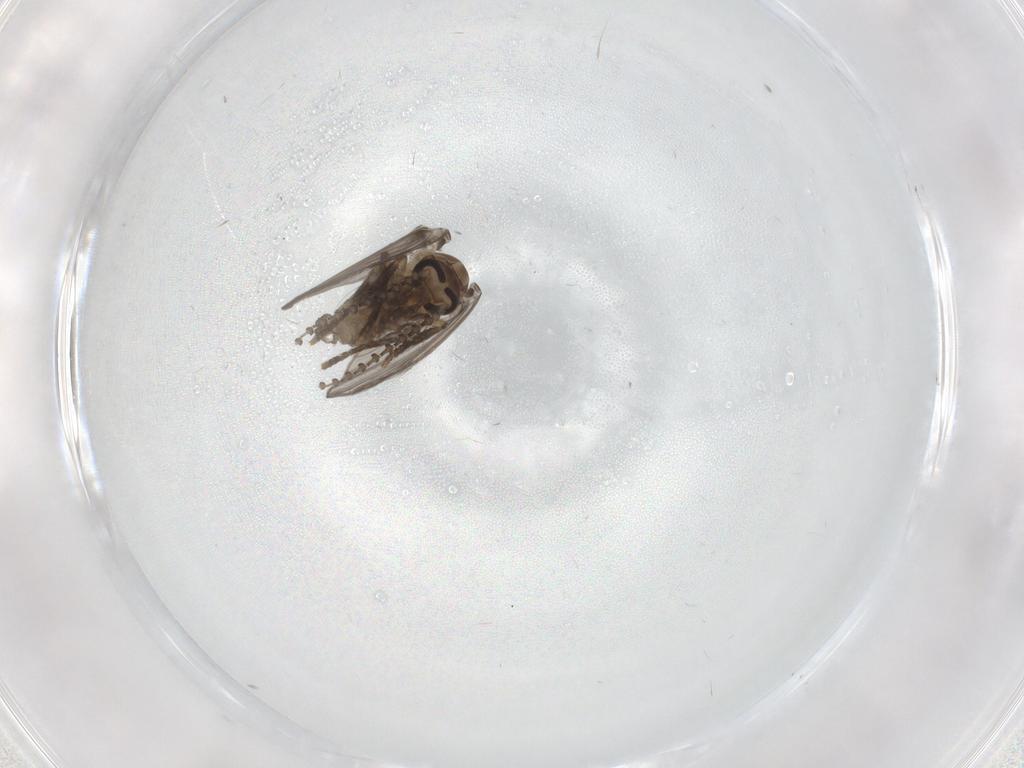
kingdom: Animalia
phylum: Arthropoda
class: Insecta
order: Diptera
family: Psychodidae
